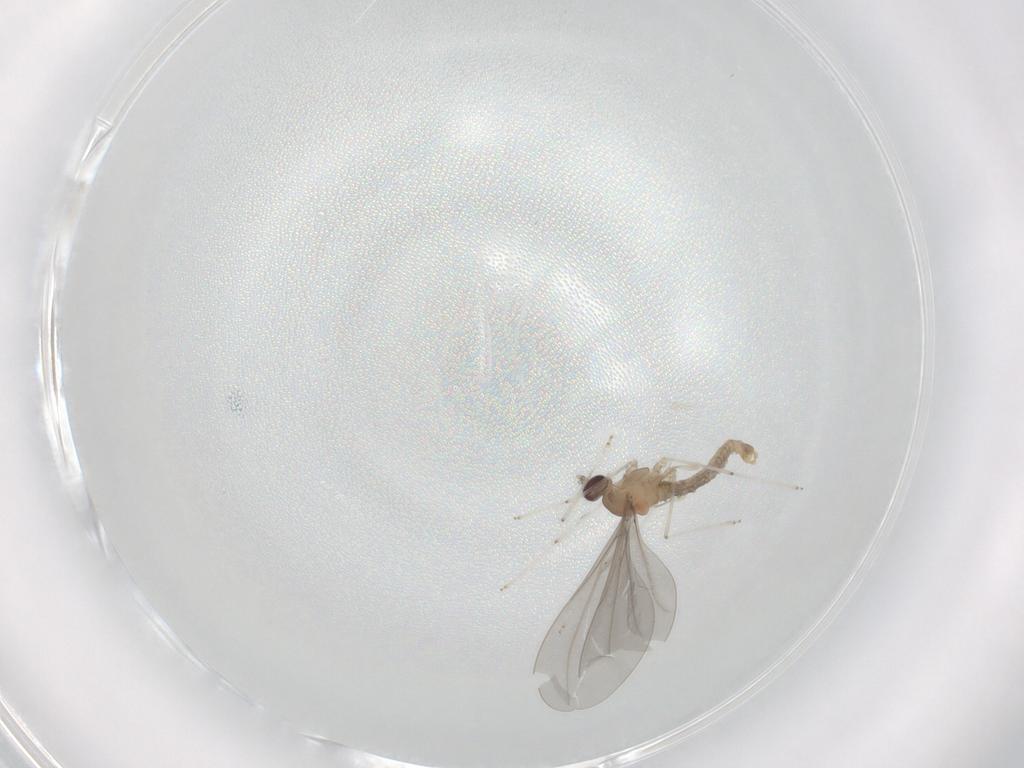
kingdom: Animalia
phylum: Arthropoda
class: Insecta
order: Diptera
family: Cecidomyiidae
